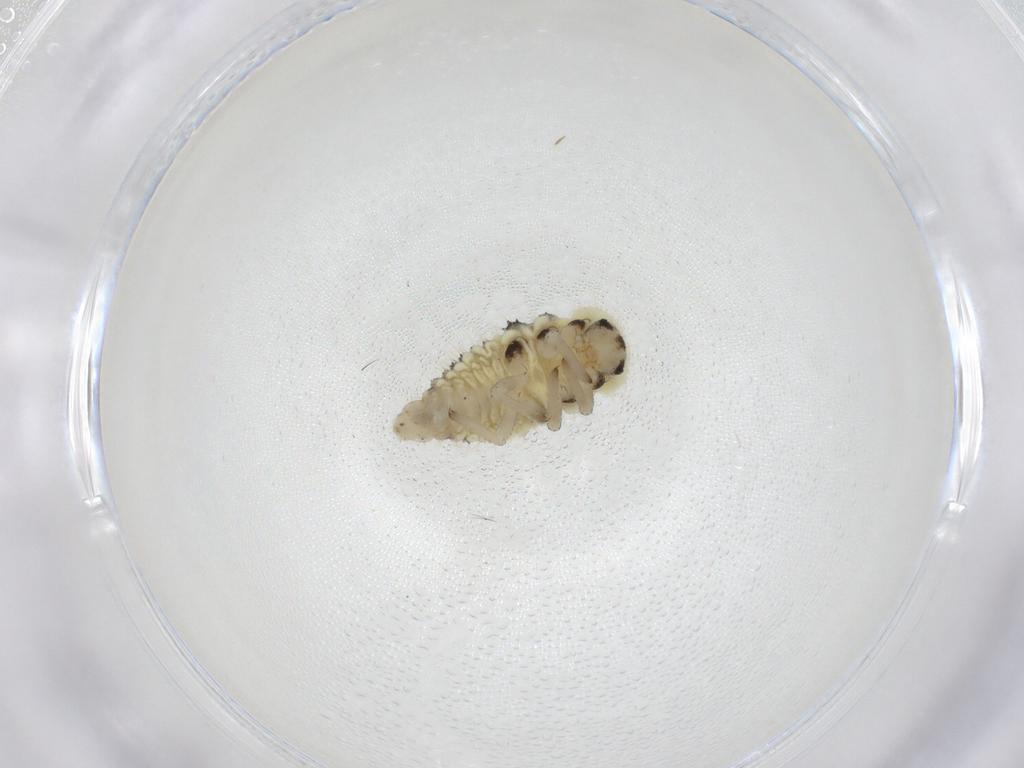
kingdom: Animalia
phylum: Arthropoda
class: Insecta
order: Coleoptera
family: Coccinellidae
